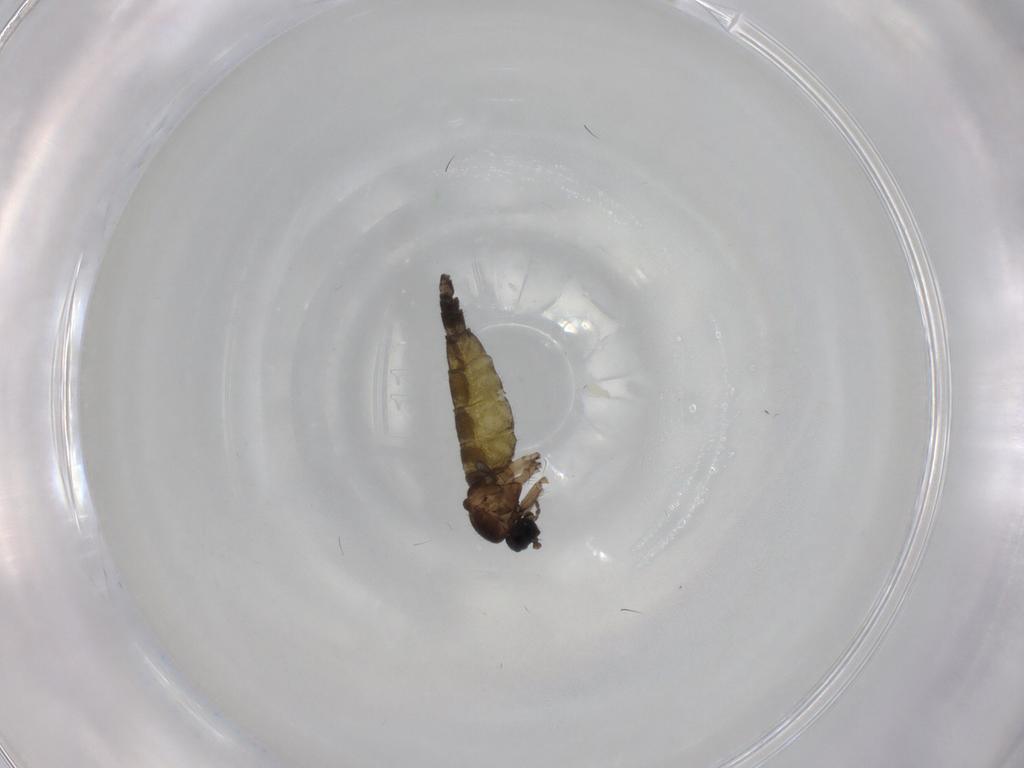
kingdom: Animalia
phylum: Arthropoda
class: Insecta
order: Diptera
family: Sciaridae
